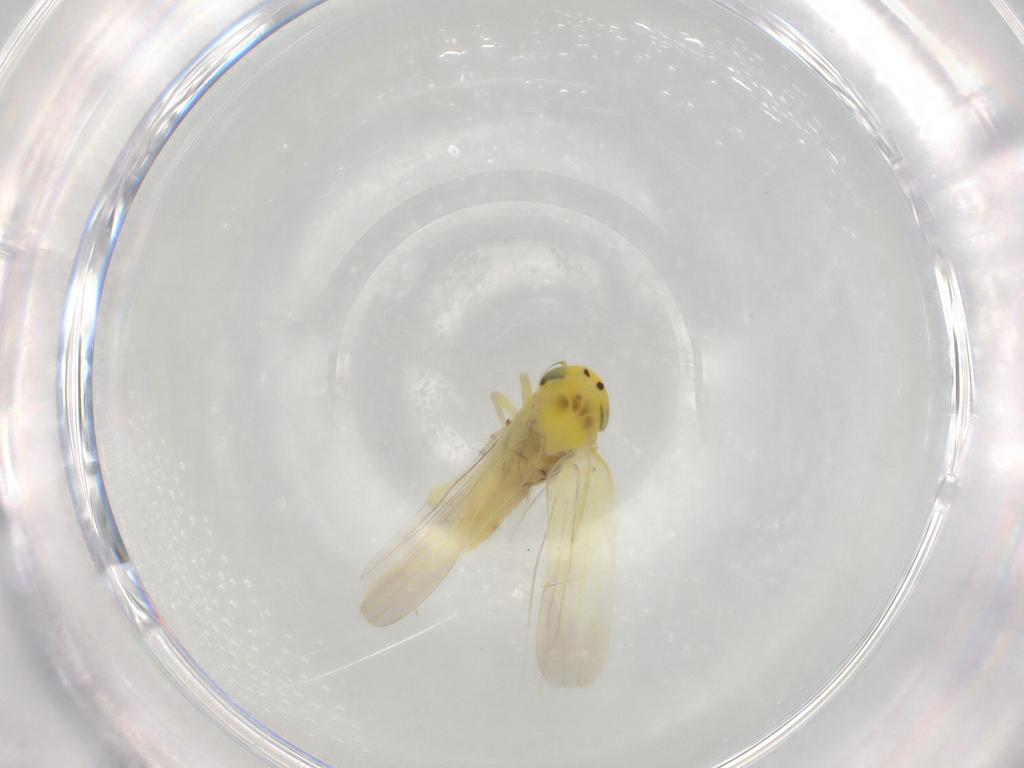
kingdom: Animalia
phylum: Arthropoda
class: Insecta
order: Hemiptera
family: Cicadellidae
